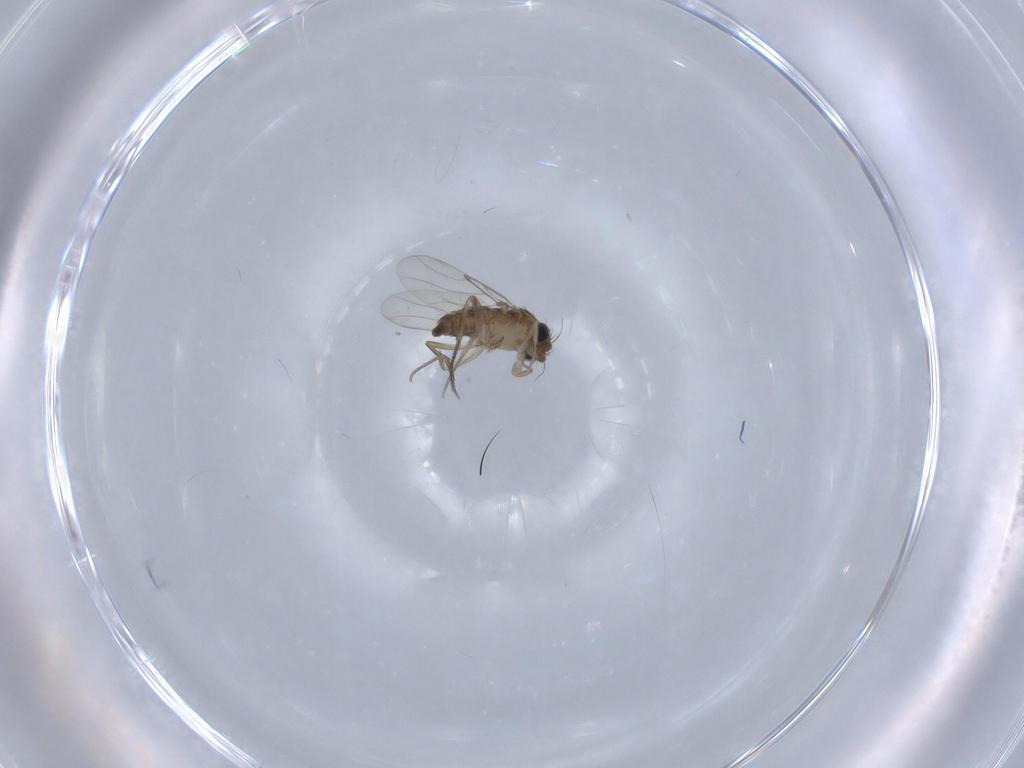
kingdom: Animalia
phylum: Arthropoda
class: Insecta
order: Diptera
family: Phoridae
